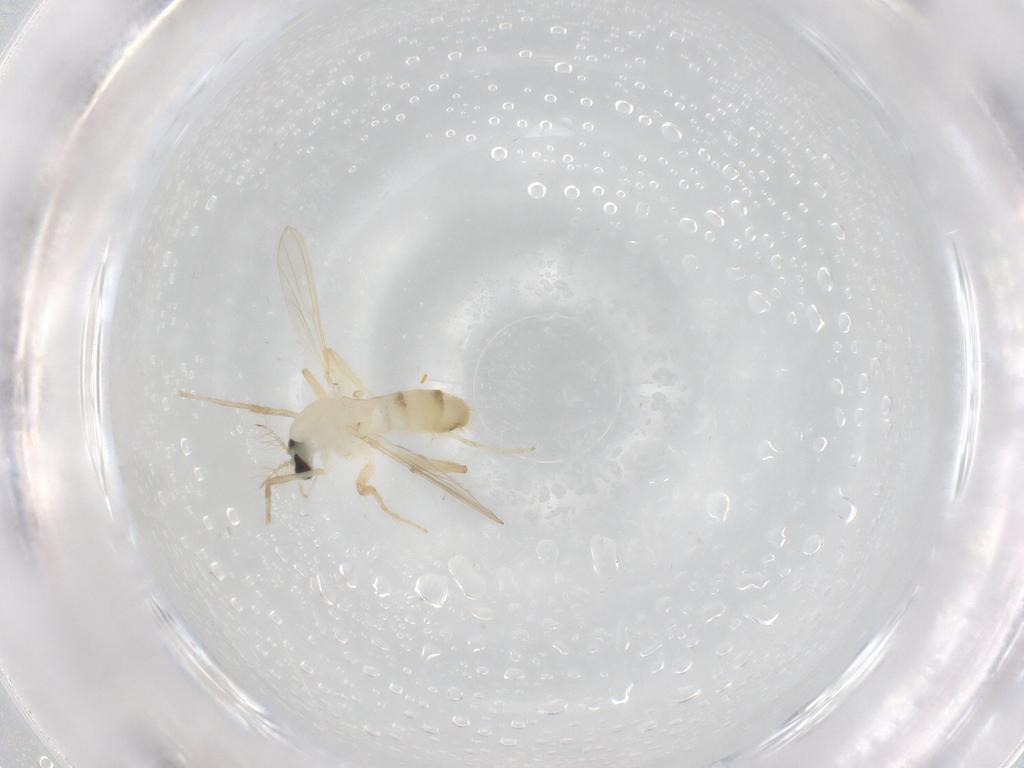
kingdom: Animalia
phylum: Arthropoda
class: Insecta
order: Diptera
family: Chironomidae
